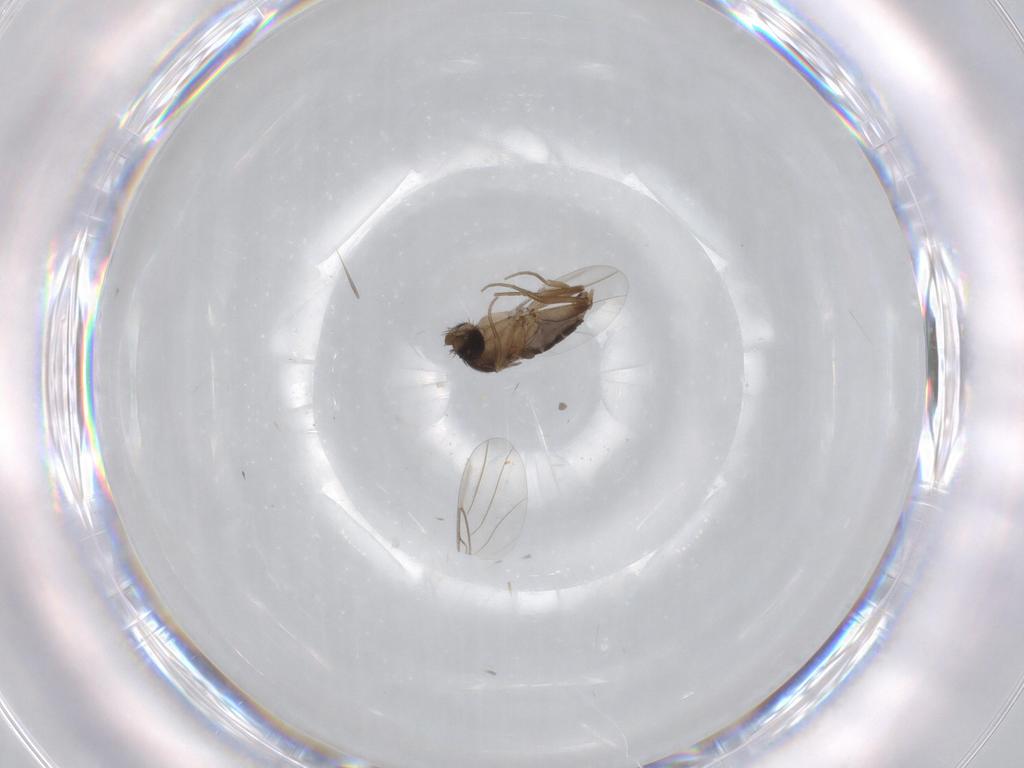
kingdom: Animalia
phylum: Arthropoda
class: Insecta
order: Diptera
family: Phoridae
